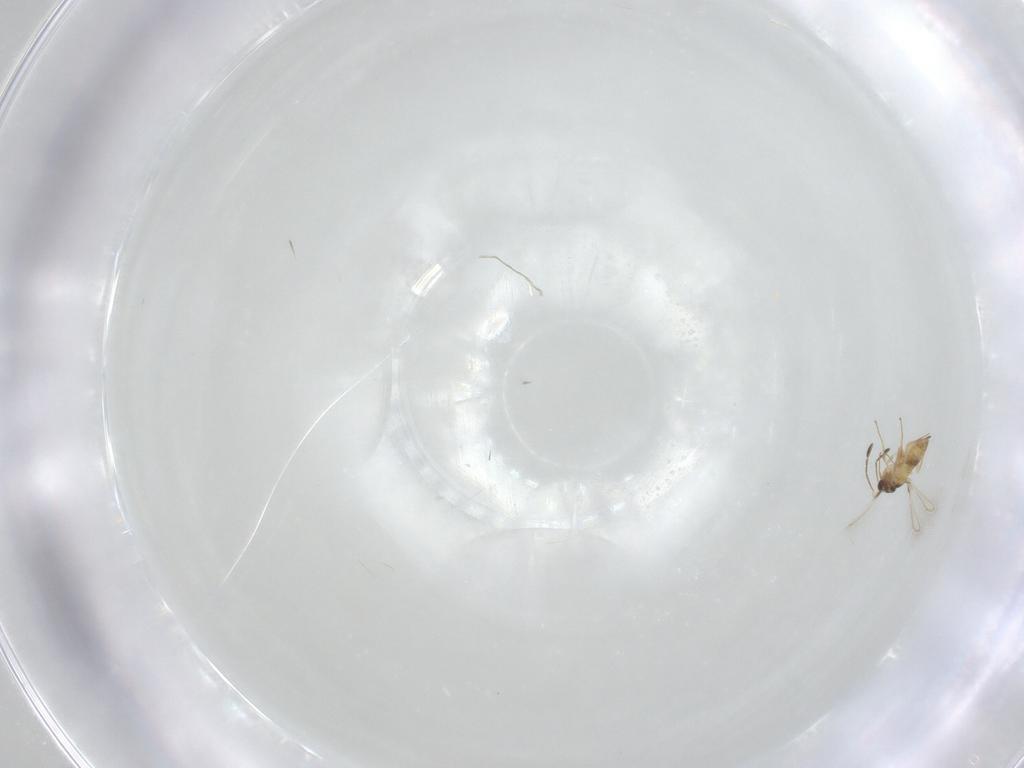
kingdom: Animalia
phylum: Arthropoda
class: Insecta
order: Hymenoptera
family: Mymaridae
